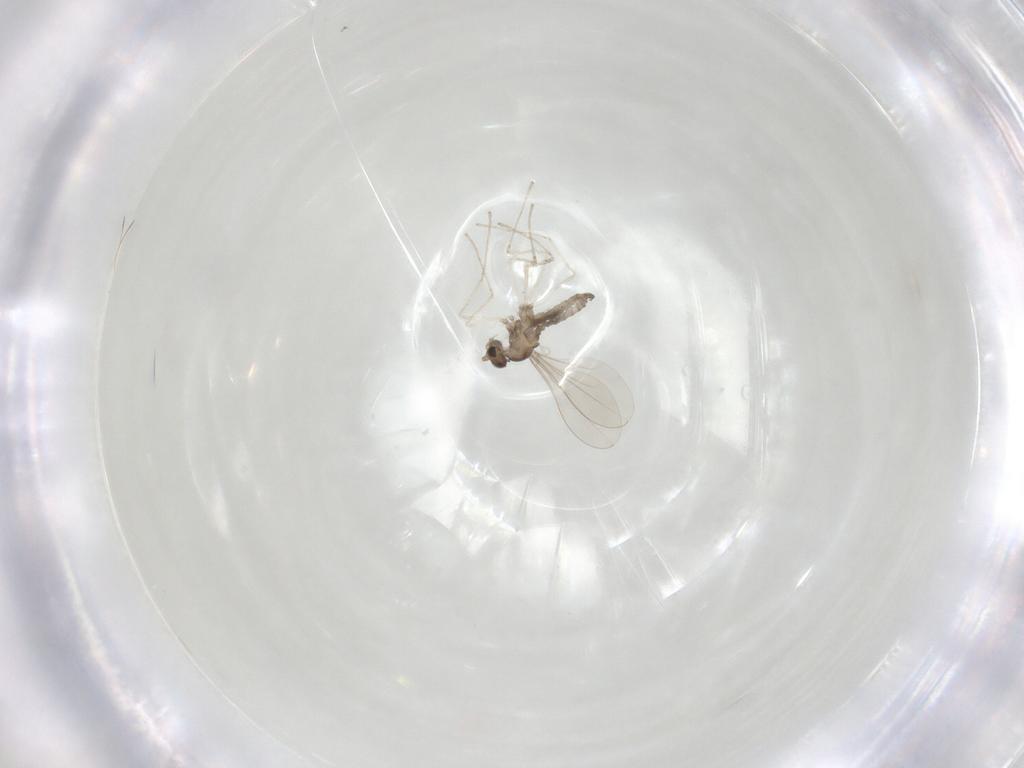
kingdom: Animalia
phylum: Arthropoda
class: Insecta
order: Diptera
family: Cecidomyiidae
